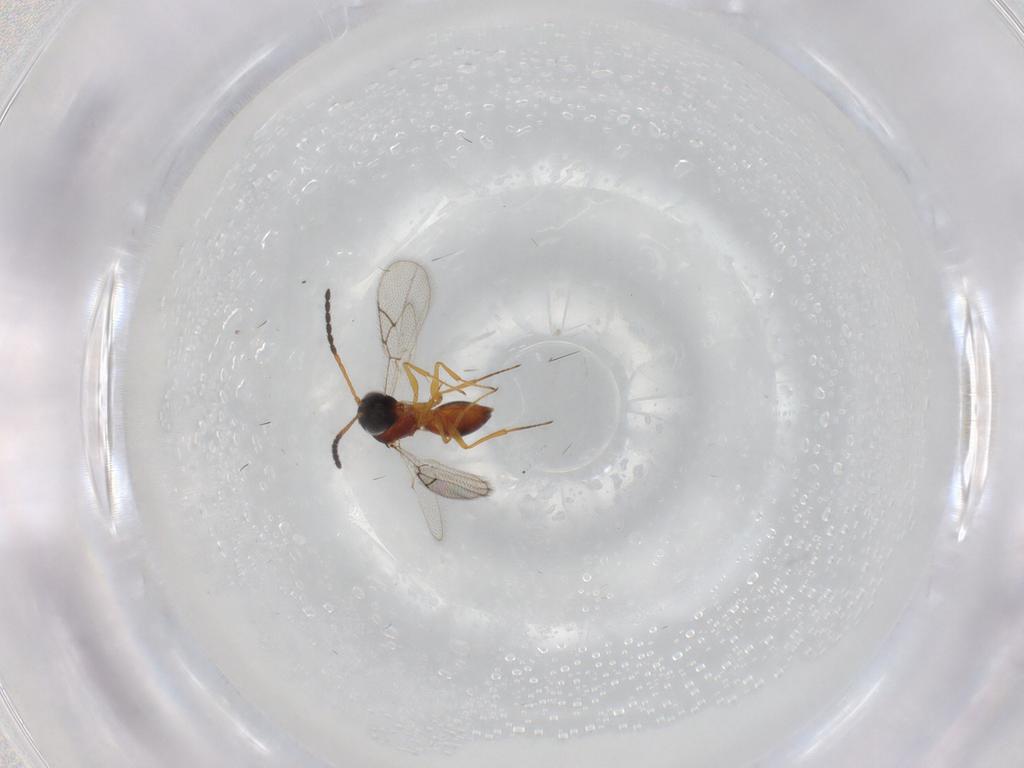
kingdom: Animalia
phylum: Arthropoda
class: Insecta
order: Hymenoptera
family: Figitidae
